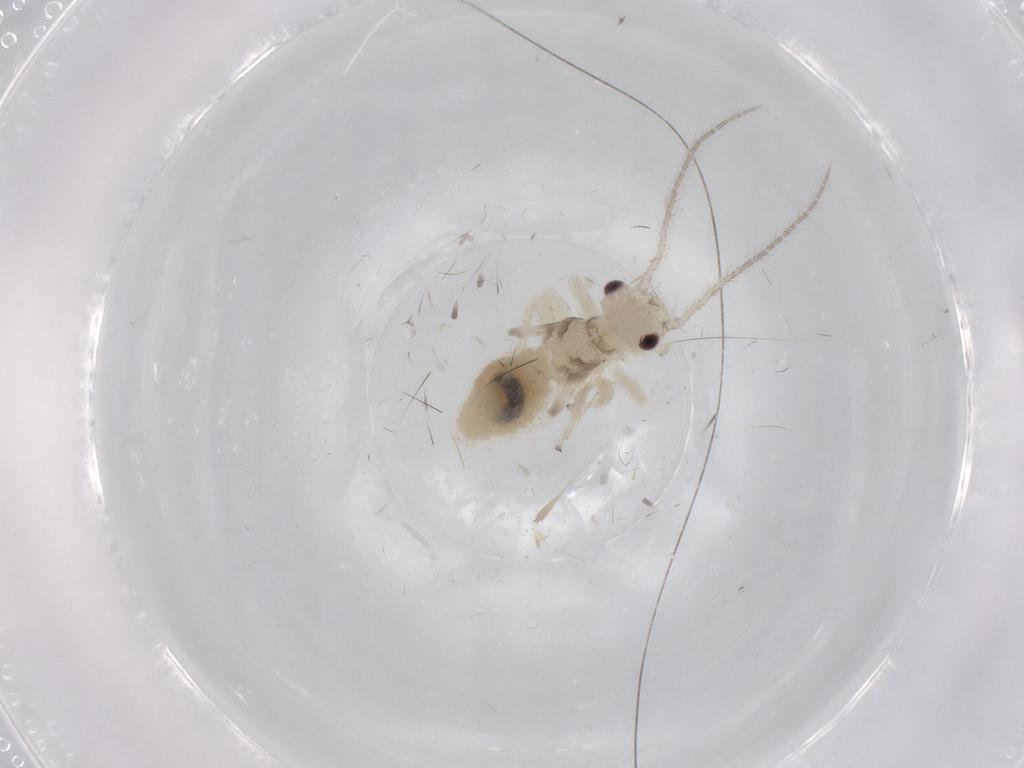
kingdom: Animalia
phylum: Arthropoda
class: Insecta
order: Psocodea
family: Amphipsocidae
